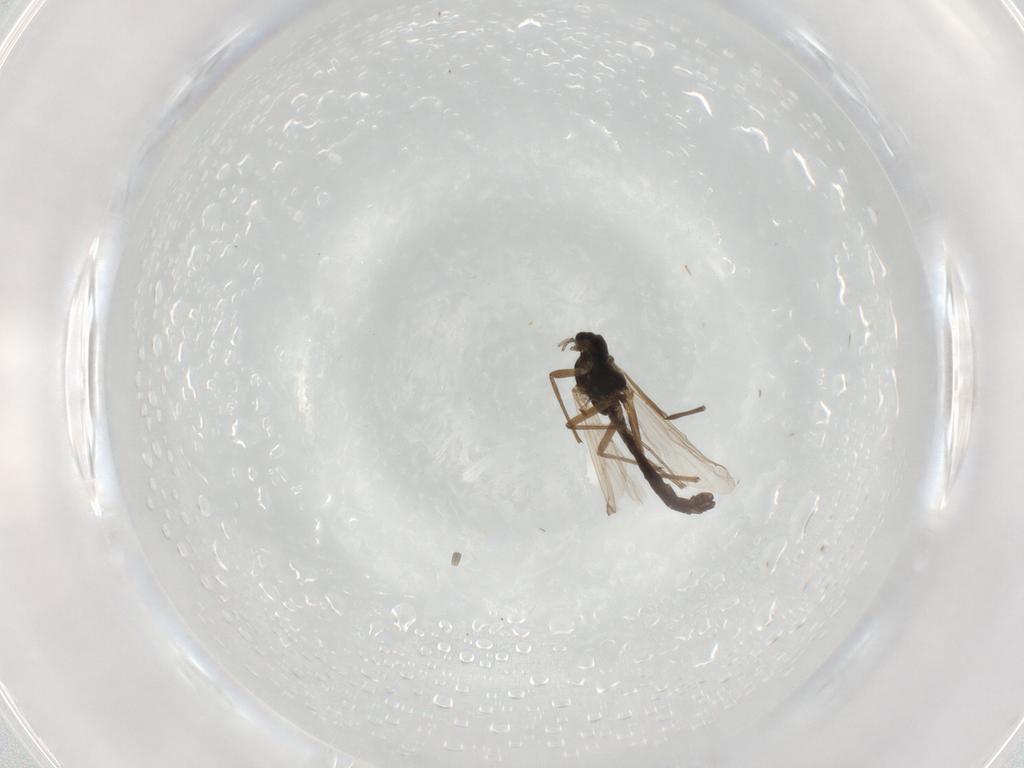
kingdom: Animalia
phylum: Arthropoda
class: Insecta
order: Diptera
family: Chironomidae
